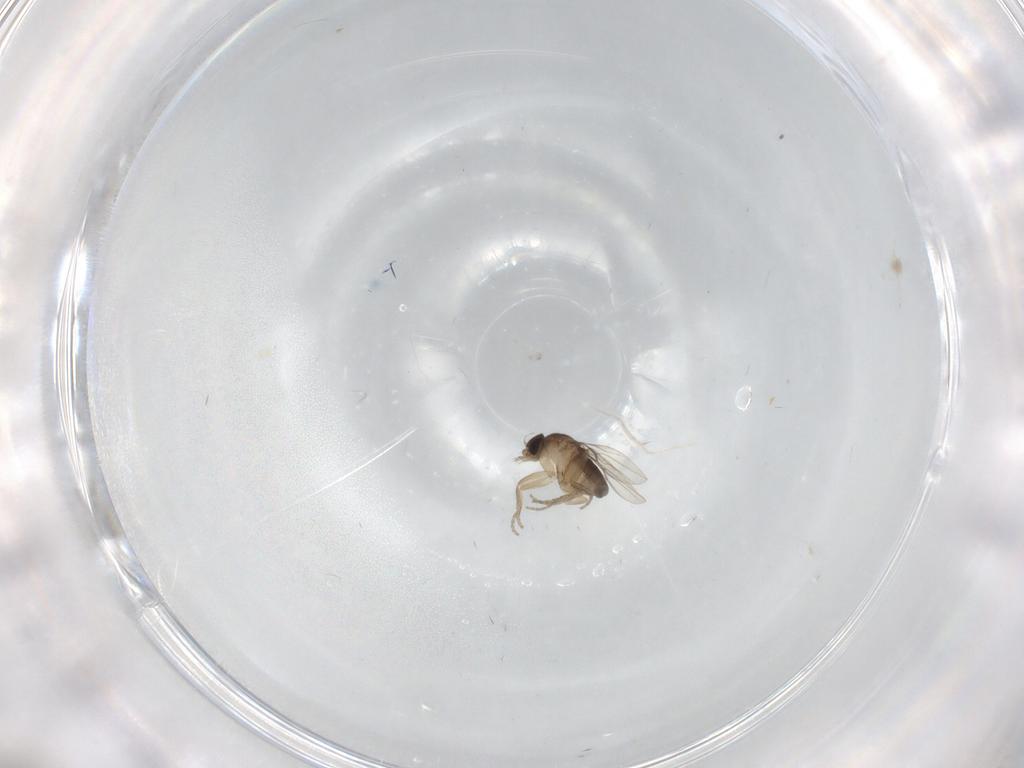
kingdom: Animalia
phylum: Arthropoda
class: Insecta
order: Diptera
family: Phoridae
